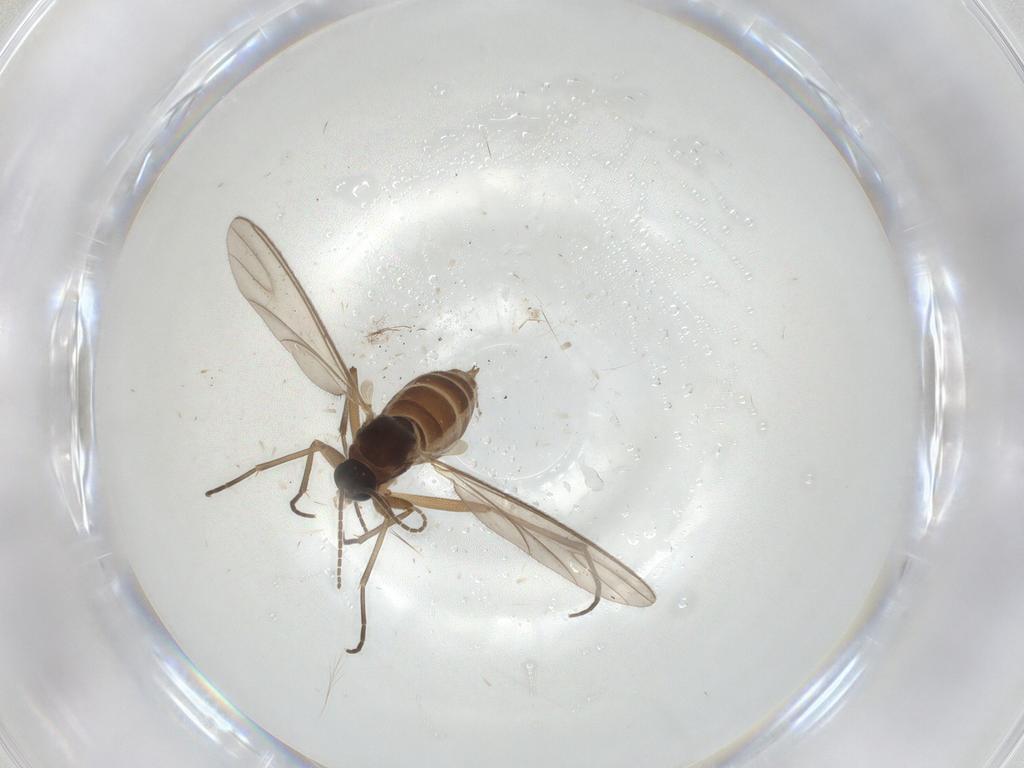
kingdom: Animalia
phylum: Arthropoda
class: Insecta
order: Diptera
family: Sciaridae
